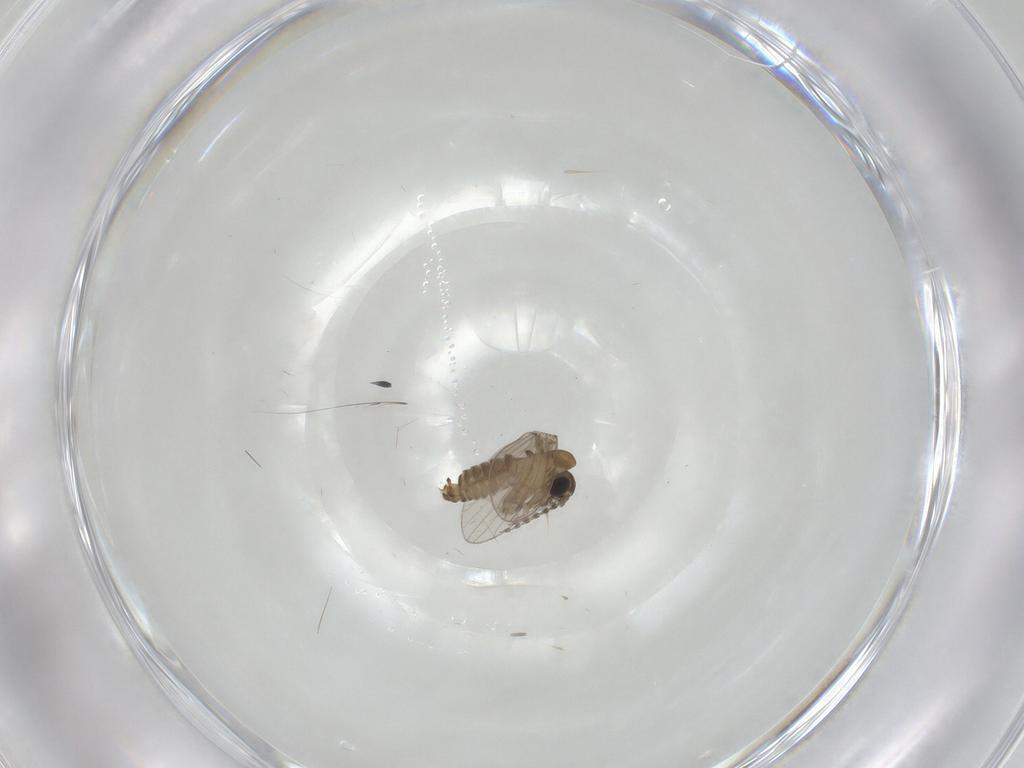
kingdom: Animalia
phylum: Arthropoda
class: Insecta
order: Diptera
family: Psychodidae
